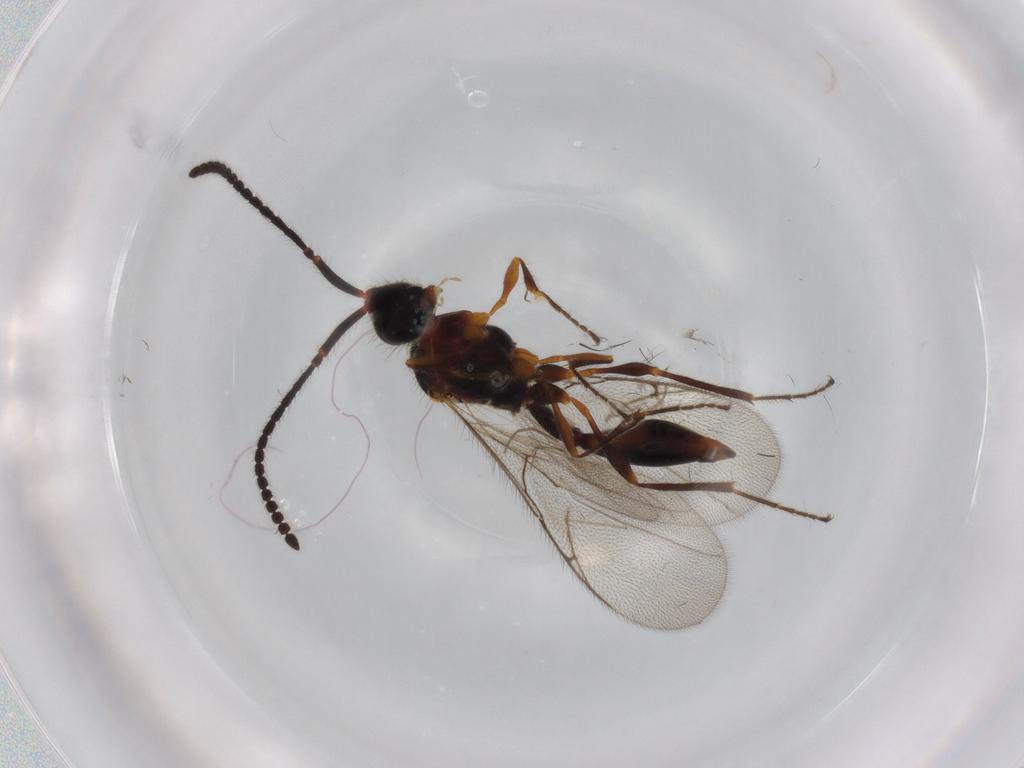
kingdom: Animalia
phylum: Arthropoda
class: Insecta
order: Hymenoptera
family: Diapriidae
